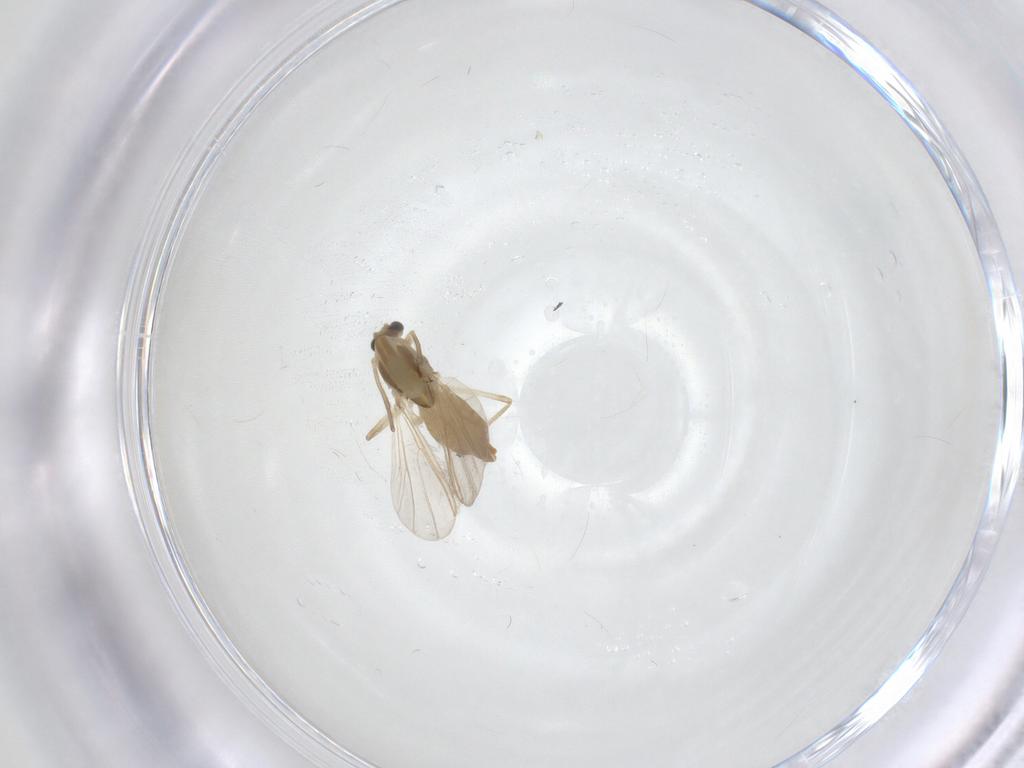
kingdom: Animalia
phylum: Arthropoda
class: Insecta
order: Diptera
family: Chironomidae
